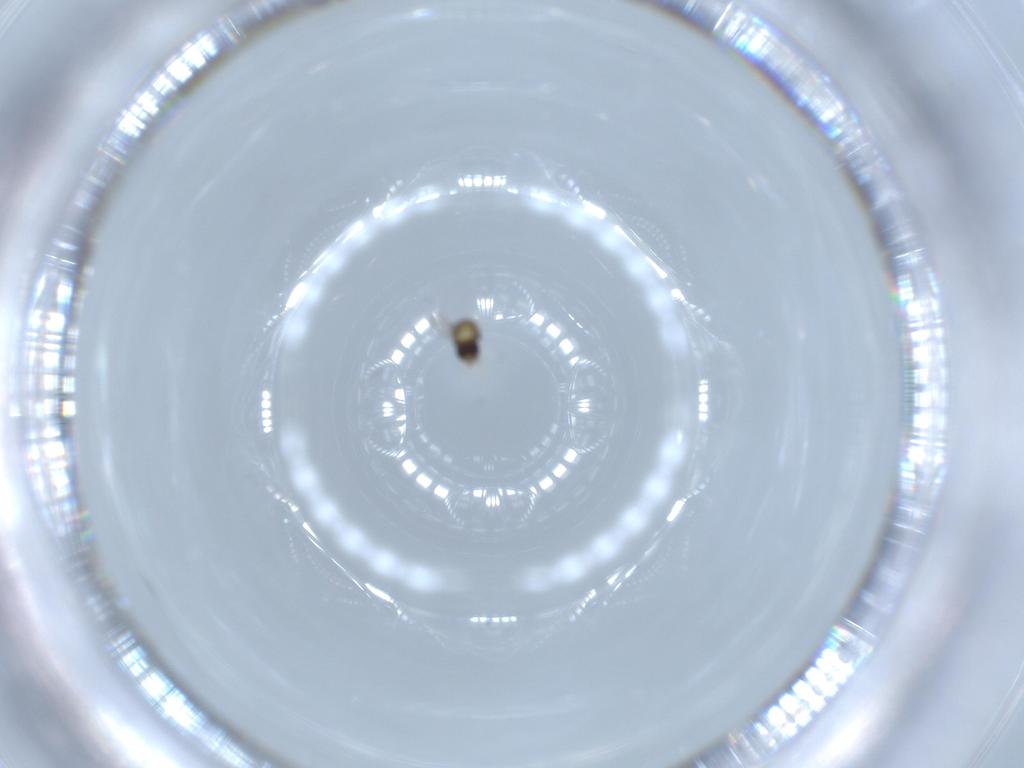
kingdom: Animalia
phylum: Arthropoda
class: Insecta
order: Hymenoptera
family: Aphelinidae
